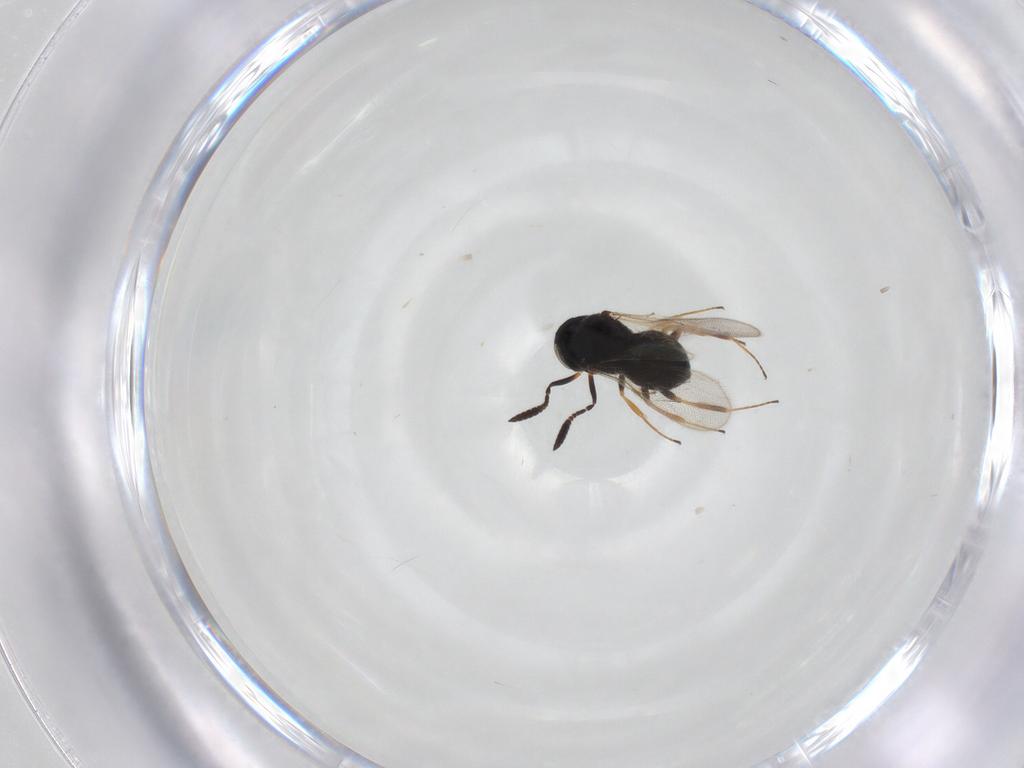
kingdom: Animalia
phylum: Arthropoda
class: Insecta
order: Hymenoptera
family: Scelionidae
